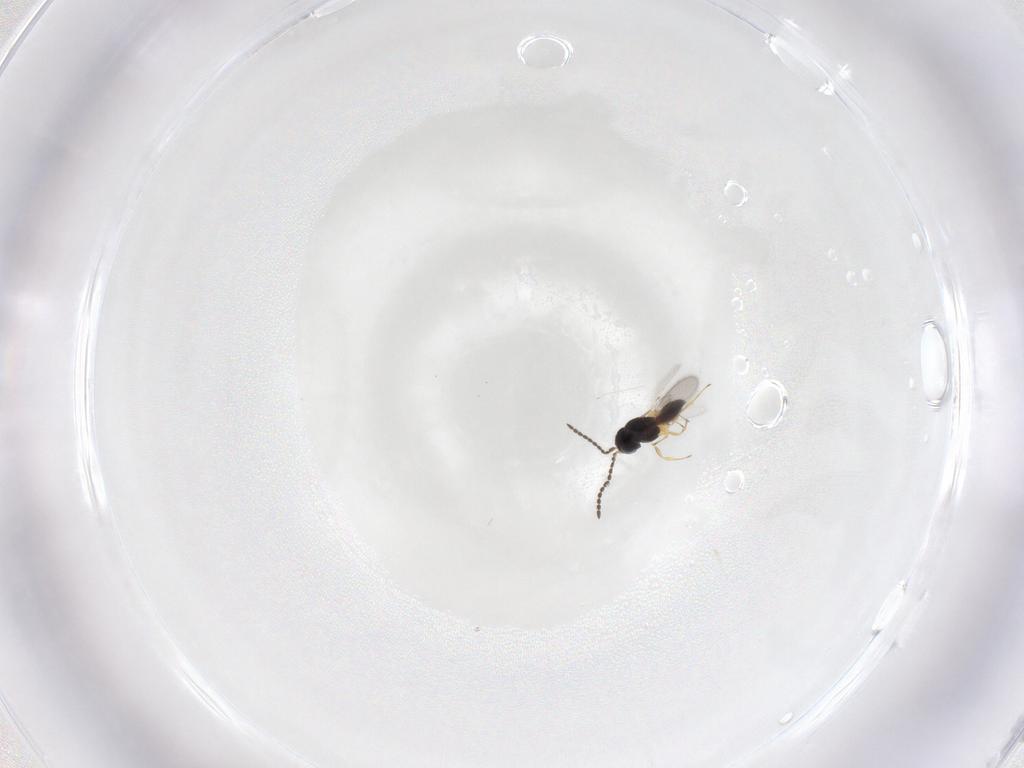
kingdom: Animalia
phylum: Arthropoda
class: Insecta
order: Hymenoptera
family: Scelionidae
